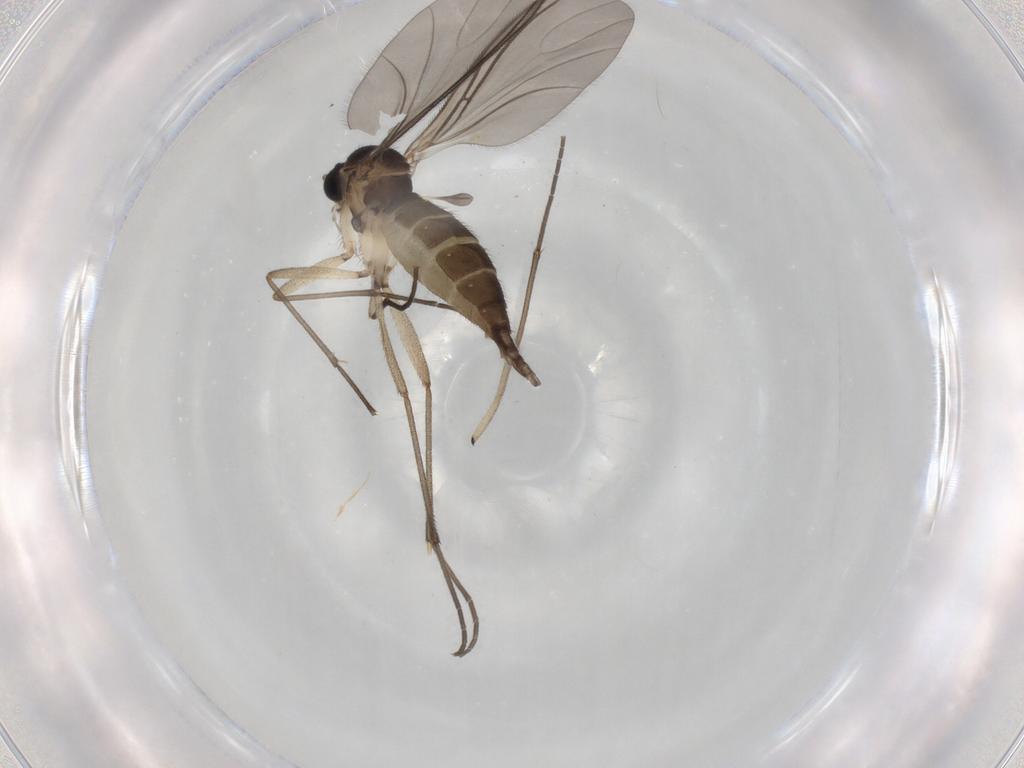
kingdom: Animalia
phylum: Arthropoda
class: Insecta
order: Diptera
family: Sciaridae
